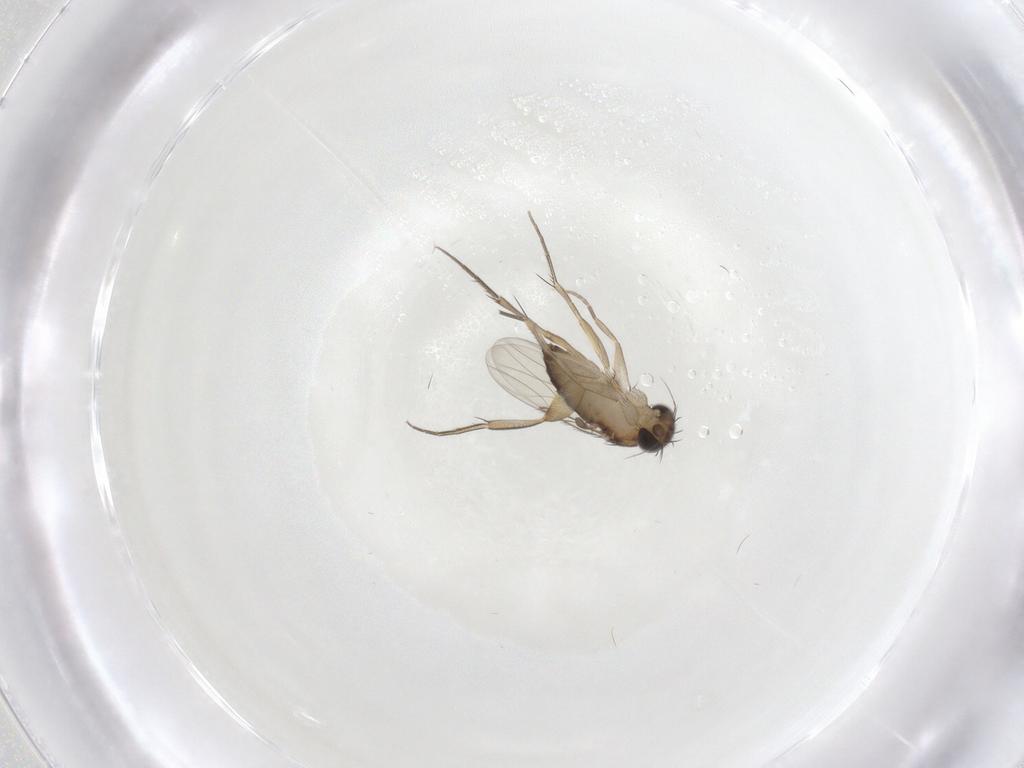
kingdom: Animalia
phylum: Arthropoda
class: Insecta
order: Diptera
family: Phoridae
